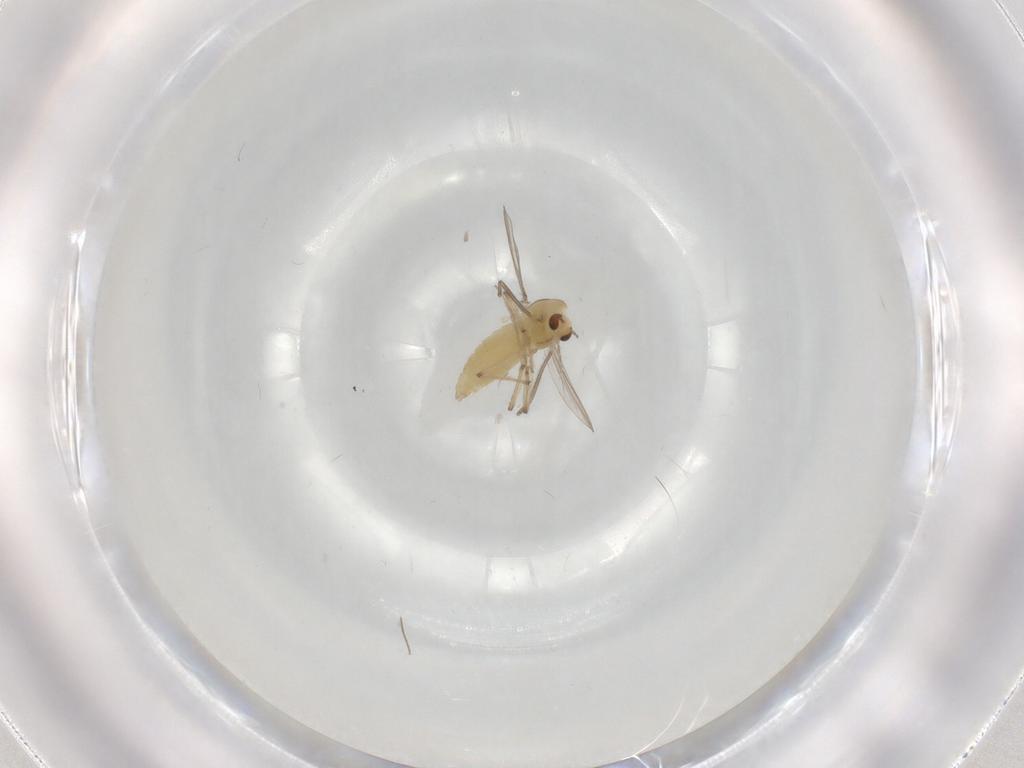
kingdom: Animalia
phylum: Arthropoda
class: Insecta
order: Diptera
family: Chironomidae
